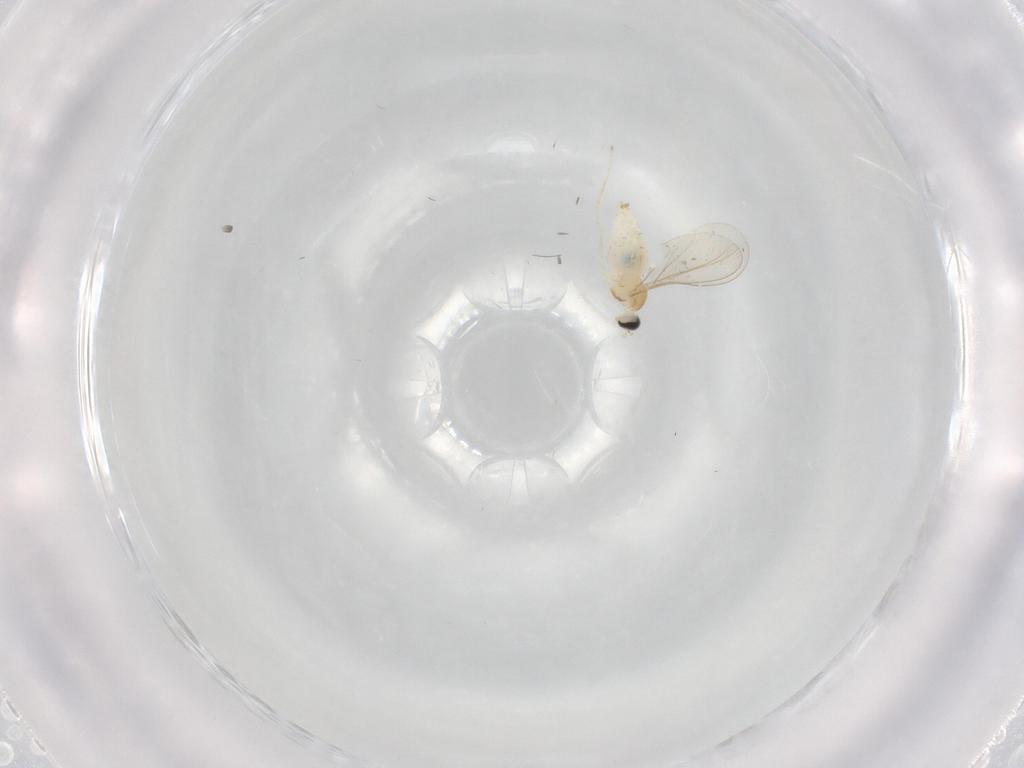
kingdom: Animalia
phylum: Arthropoda
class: Insecta
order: Diptera
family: Cecidomyiidae
